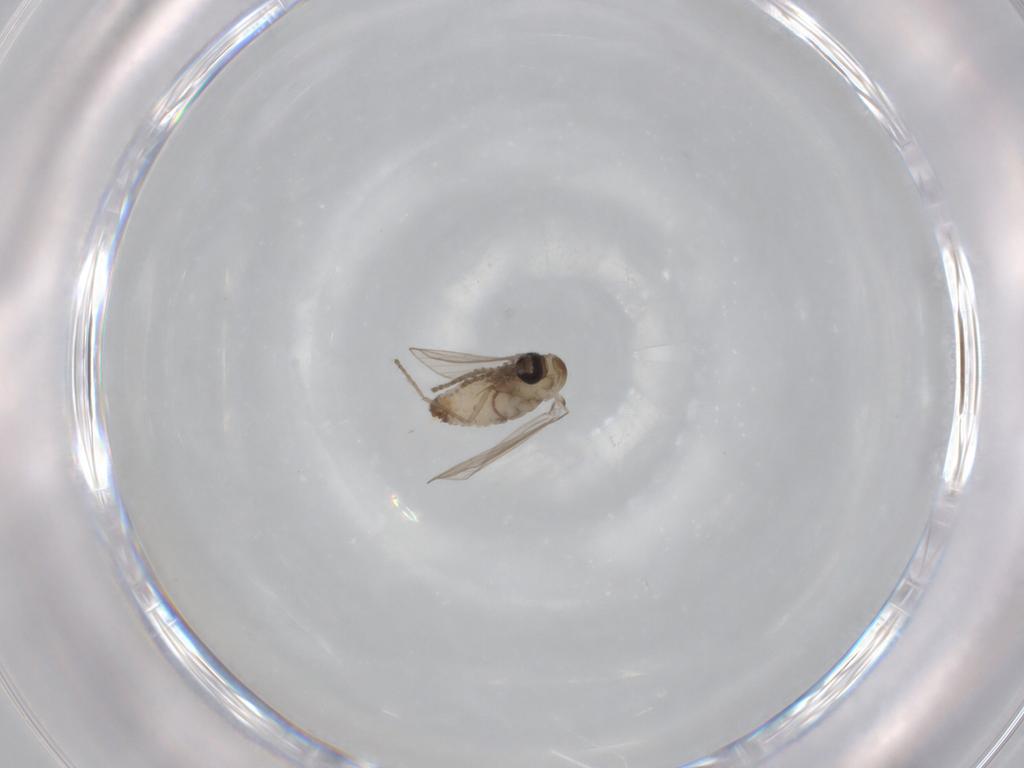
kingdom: Animalia
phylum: Arthropoda
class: Insecta
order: Diptera
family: Psychodidae
